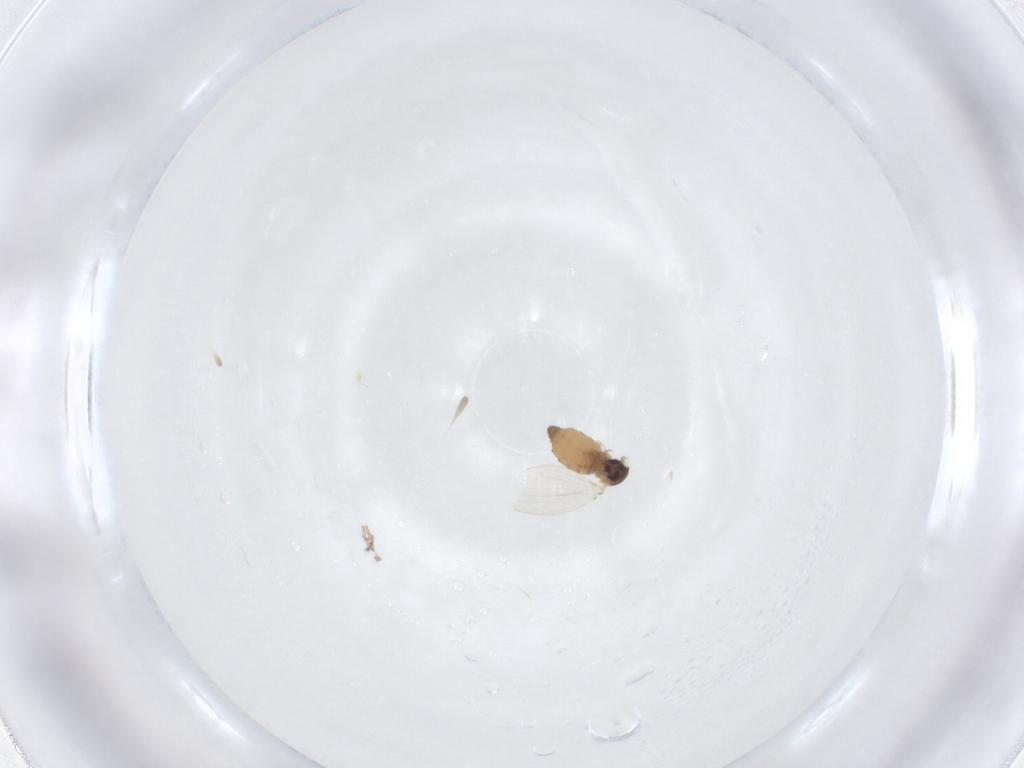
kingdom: Animalia
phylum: Arthropoda
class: Insecta
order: Diptera
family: Psychodidae
